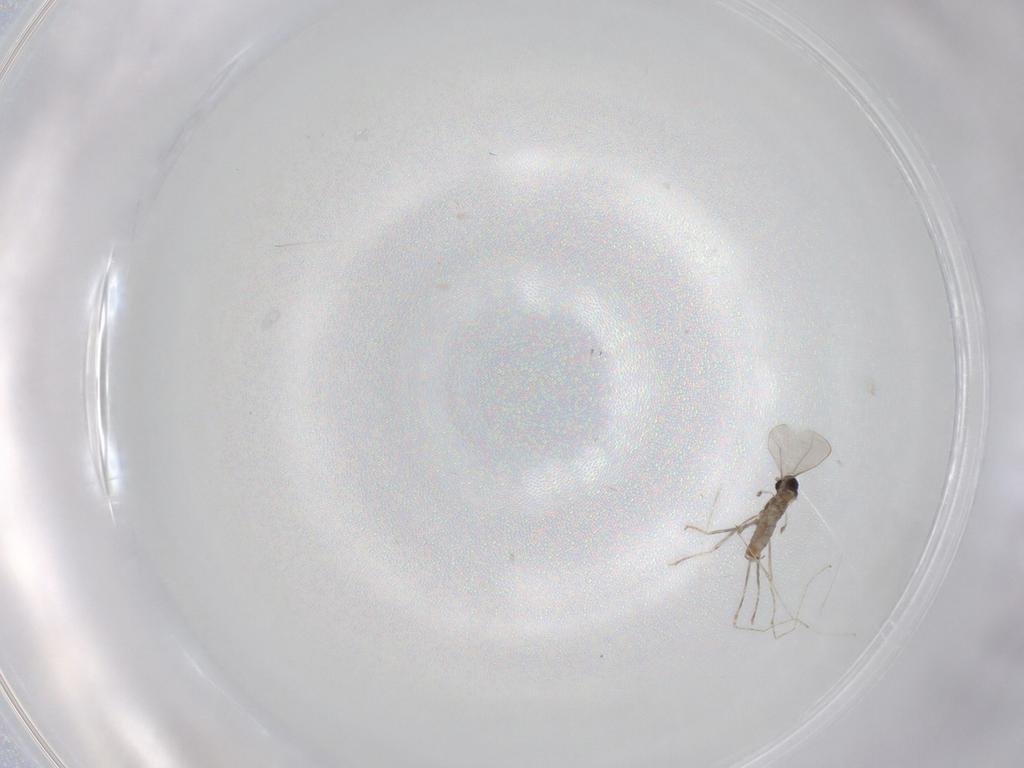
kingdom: Animalia
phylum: Arthropoda
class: Insecta
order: Diptera
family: Cecidomyiidae
